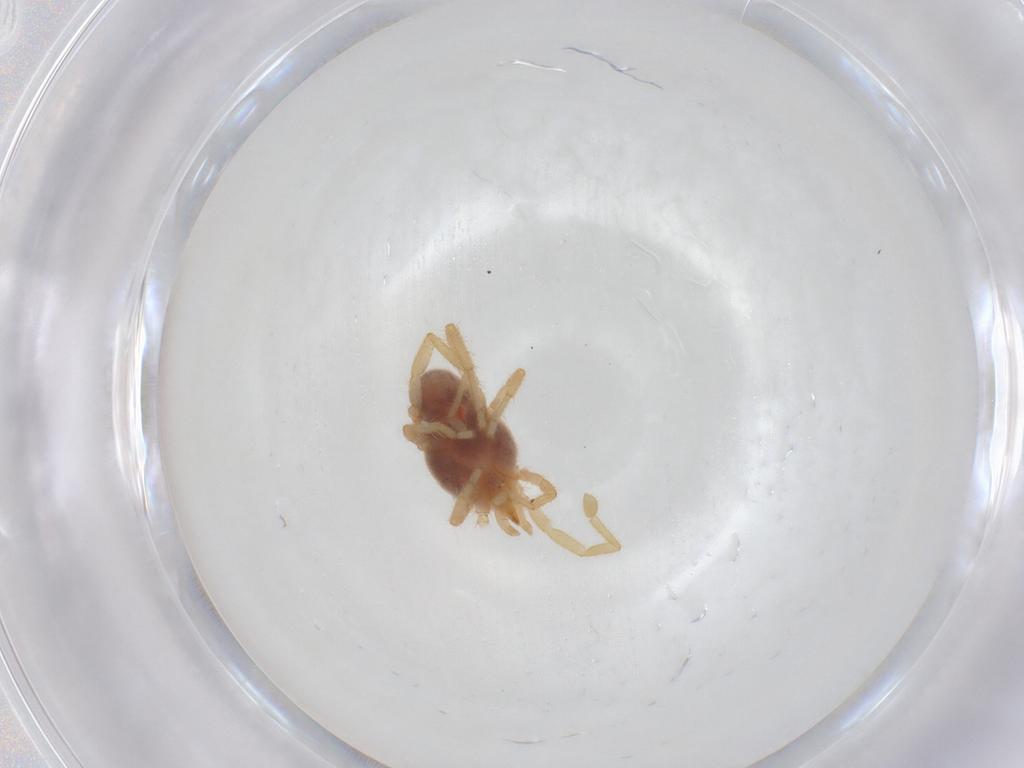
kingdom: Animalia
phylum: Arthropoda
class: Arachnida
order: Trombidiformes
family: Erythraeidae
